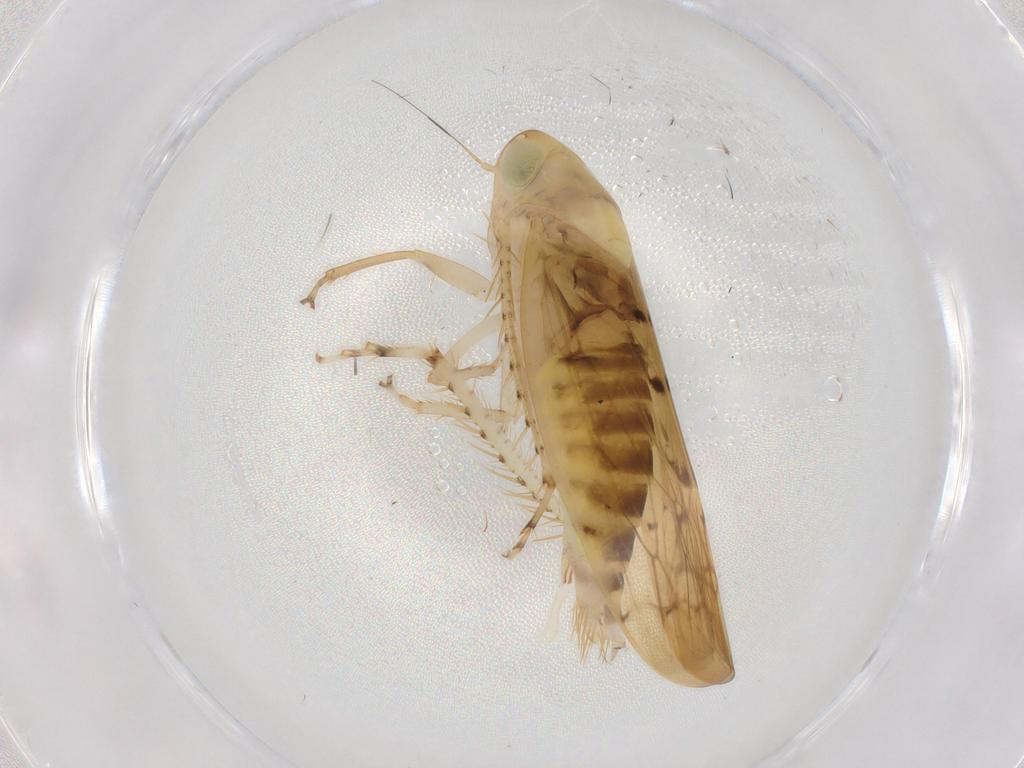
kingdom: Animalia
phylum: Arthropoda
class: Insecta
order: Hemiptera
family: Cicadellidae
